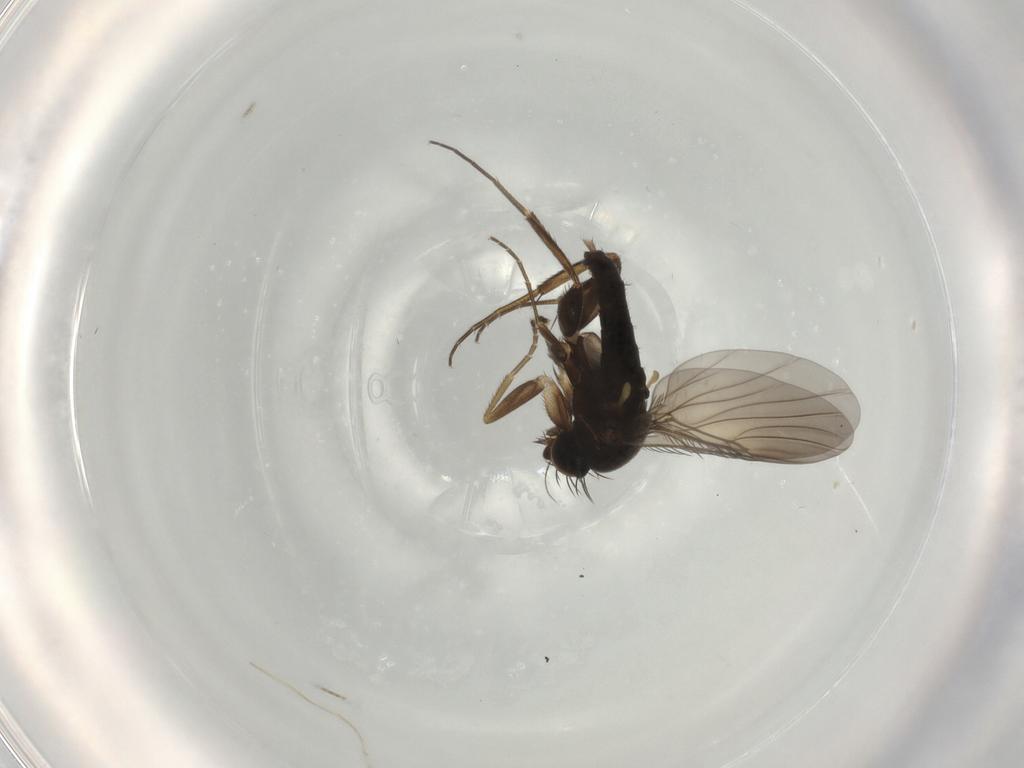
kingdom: Animalia
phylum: Arthropoda
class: Insecta
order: Diptera
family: Phoridae
